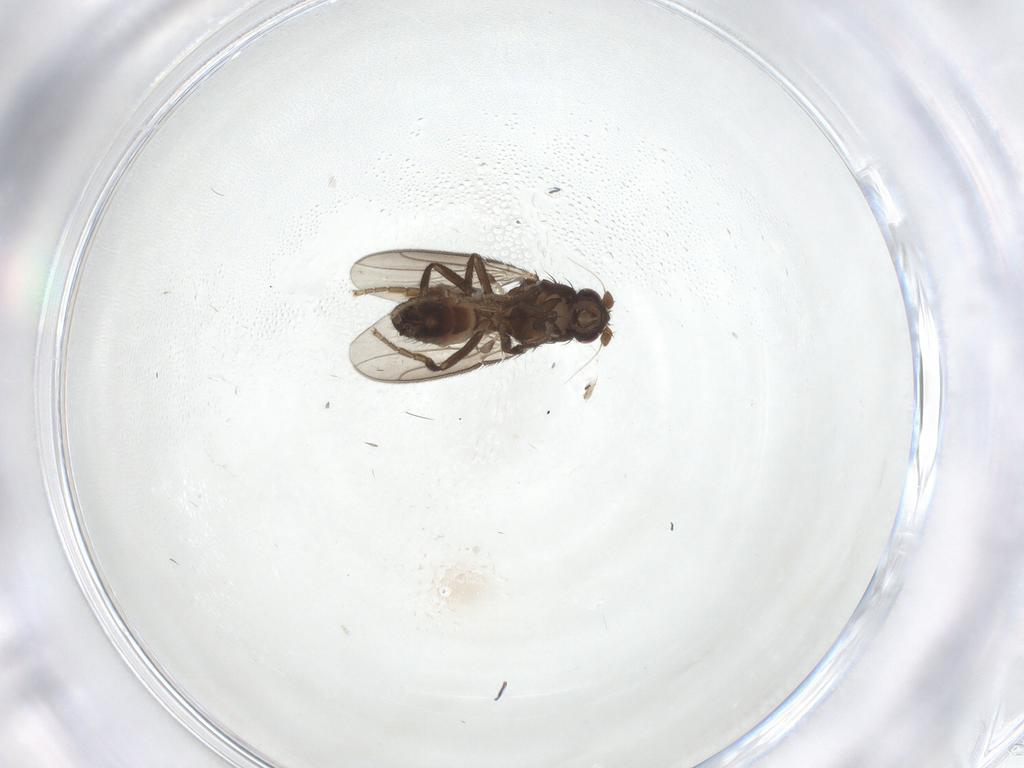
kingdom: Animalia
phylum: Arthropoda
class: Insecta
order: Diptera
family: Sphaeroceridae
